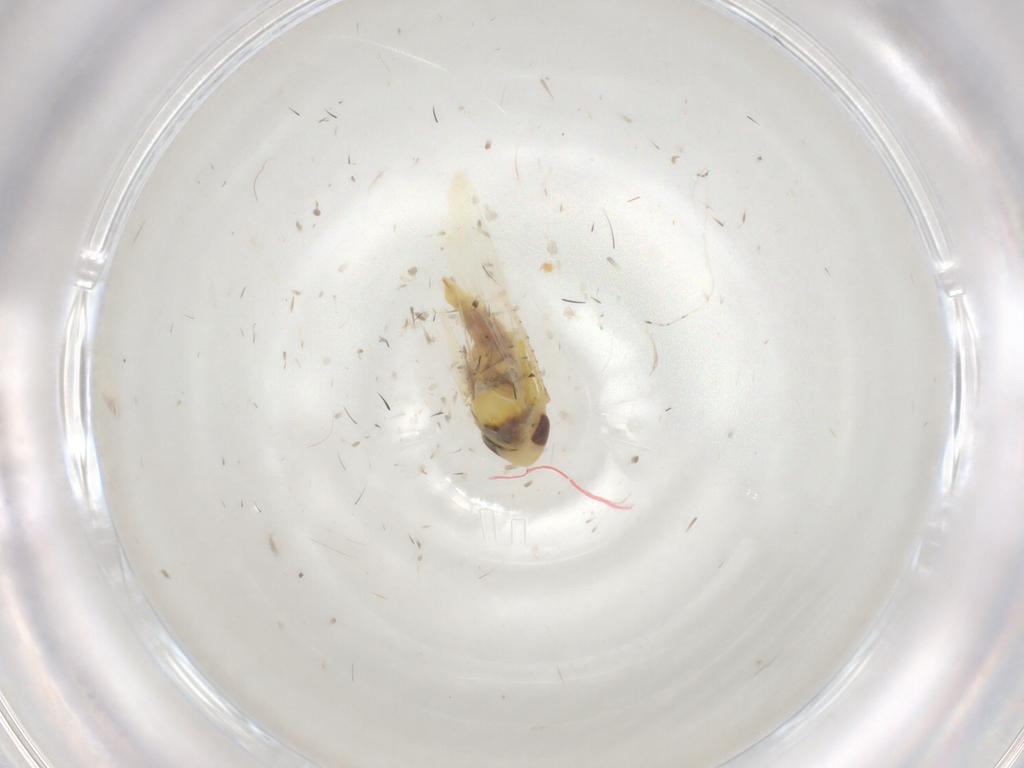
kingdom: Animalia
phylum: Arthropoda
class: Insecta
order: Hemiptera
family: Cicadellidae
